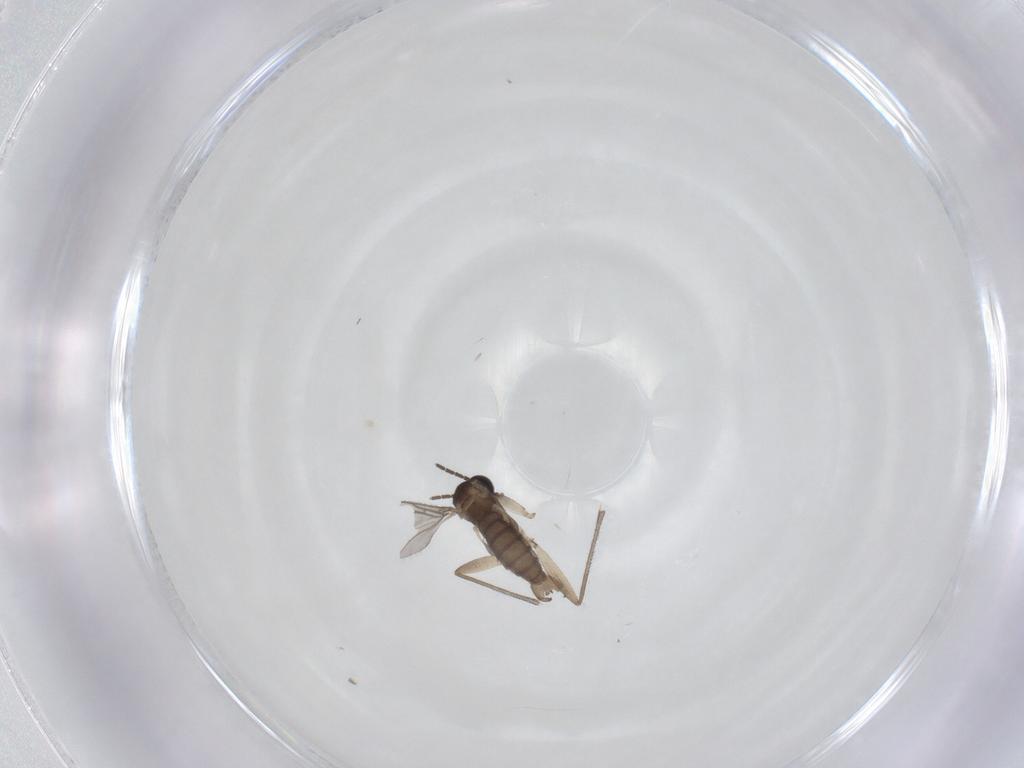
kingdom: Animalia
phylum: Arthropoda
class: Insecta
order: Diptera
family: Sciaridae
